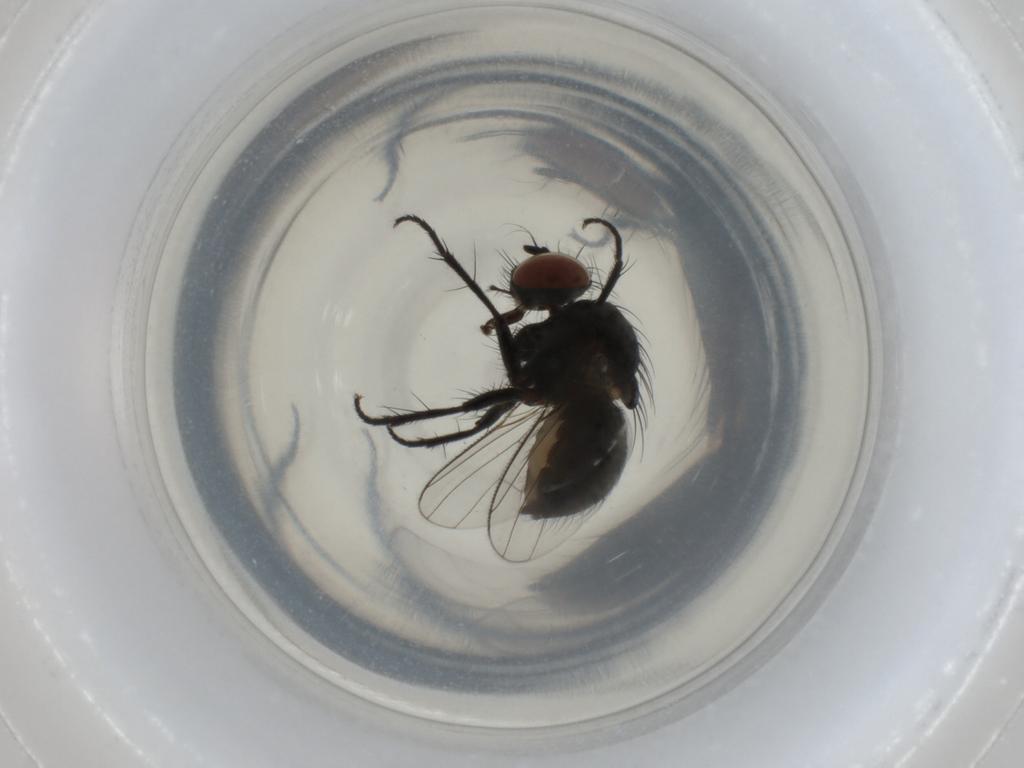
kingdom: Animalia
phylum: Arthropoda
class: Insecta
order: Diptera
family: Muscidae
